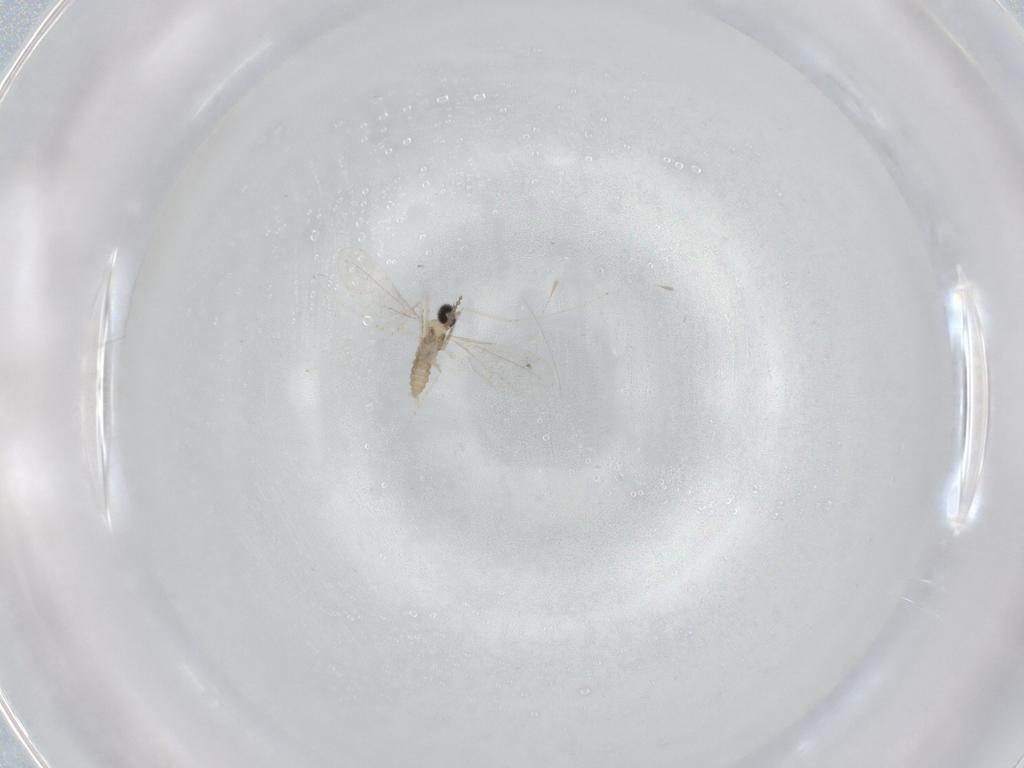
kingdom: Animalia
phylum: Arthropoda
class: Insecta
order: Diptera
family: Cecidomyiidae
